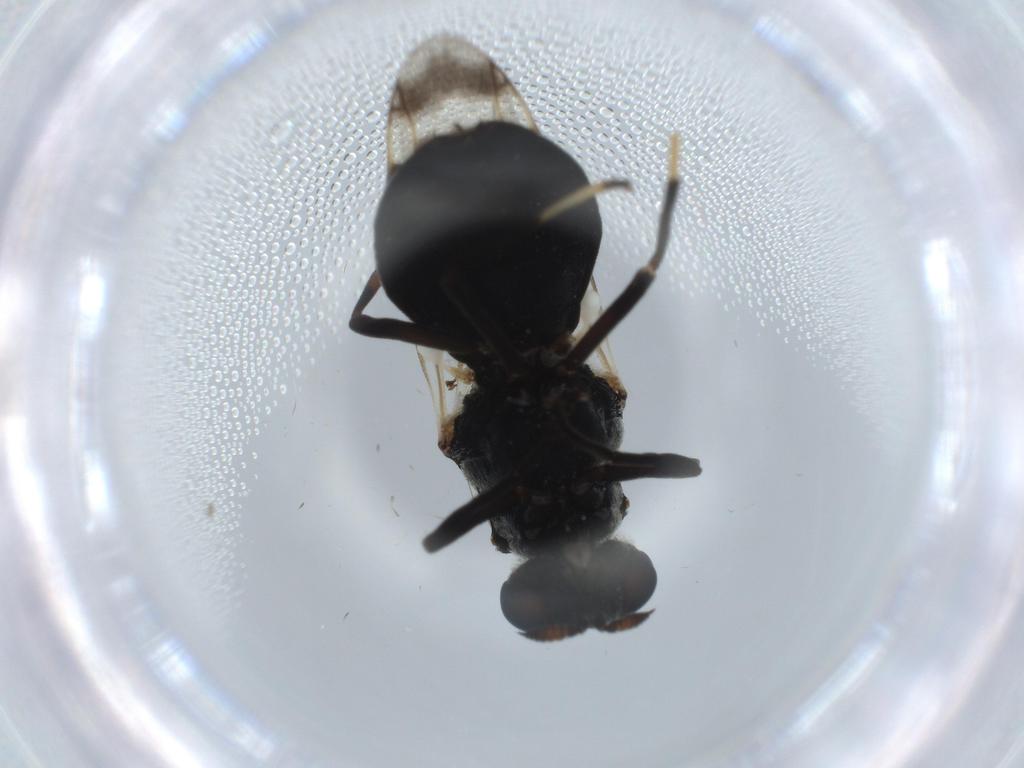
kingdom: Animalia
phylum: Arthropoda
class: Insecta
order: Diptera
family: Stratiomyidae
